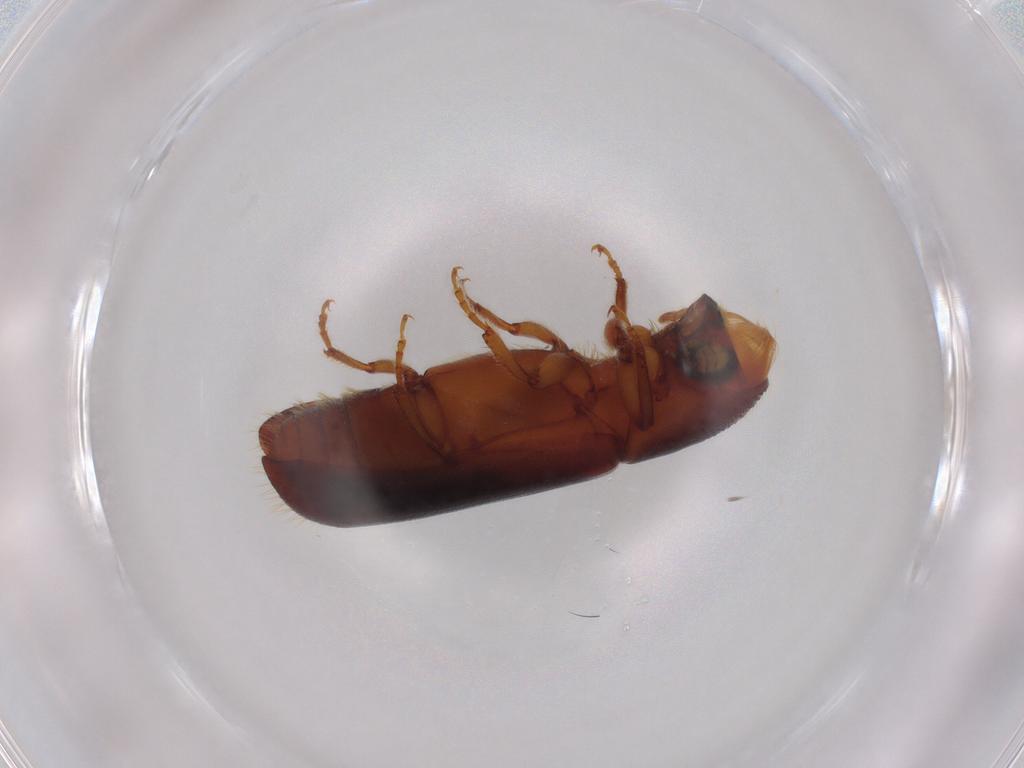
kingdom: Animalia
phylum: Arthropoda
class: Insecta
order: Coleoptera
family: Curculionidae
